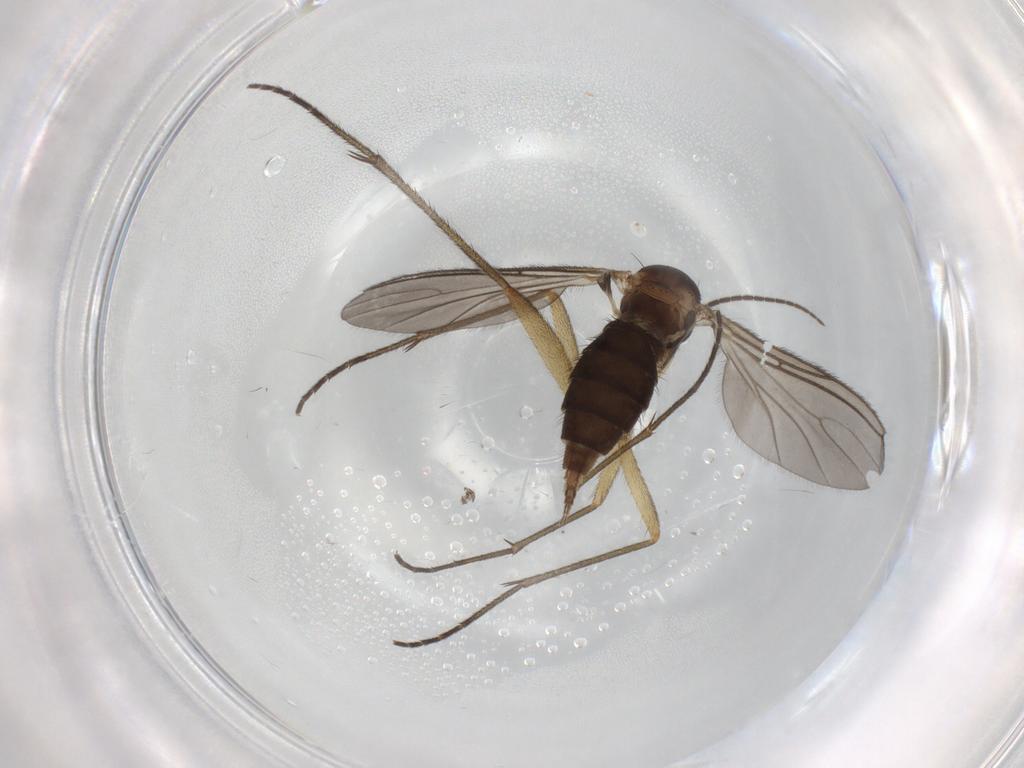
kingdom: Animalia
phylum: Arthropoda
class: Insecta
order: Diptera
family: Sciaridae
